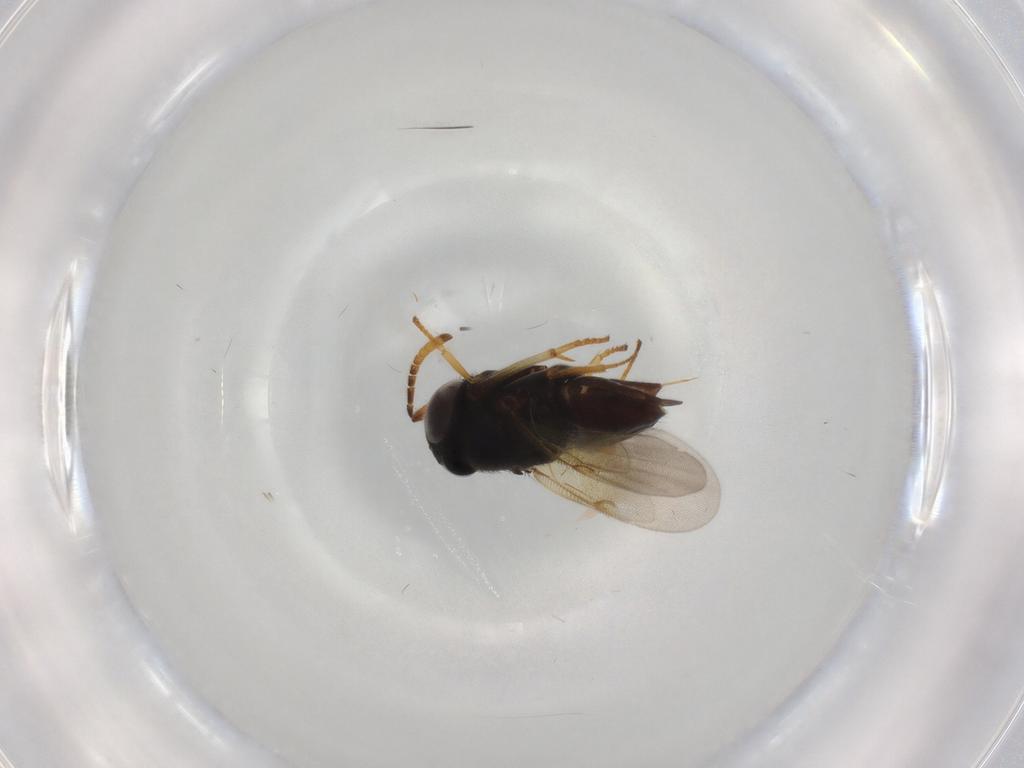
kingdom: Animalia
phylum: Arthropoda
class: Insecta
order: Hymenoptera
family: Encyrtidae
